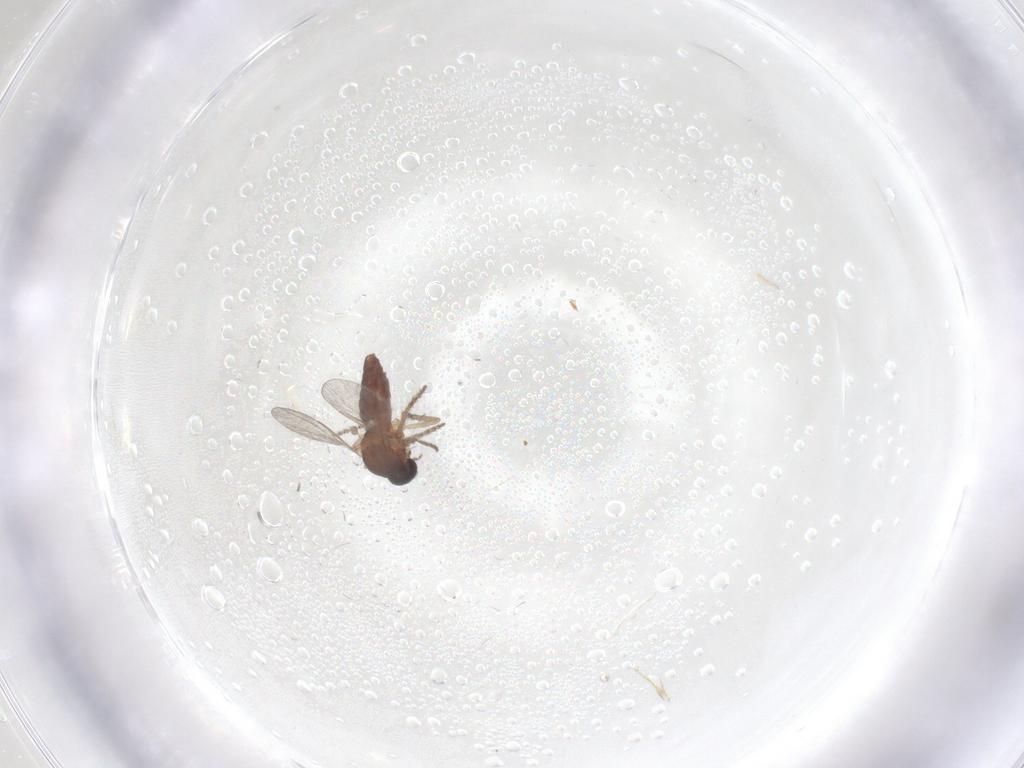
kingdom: Animalia
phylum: Arthropoda
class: Insecta
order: Diptera
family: Ceratopogonidae
